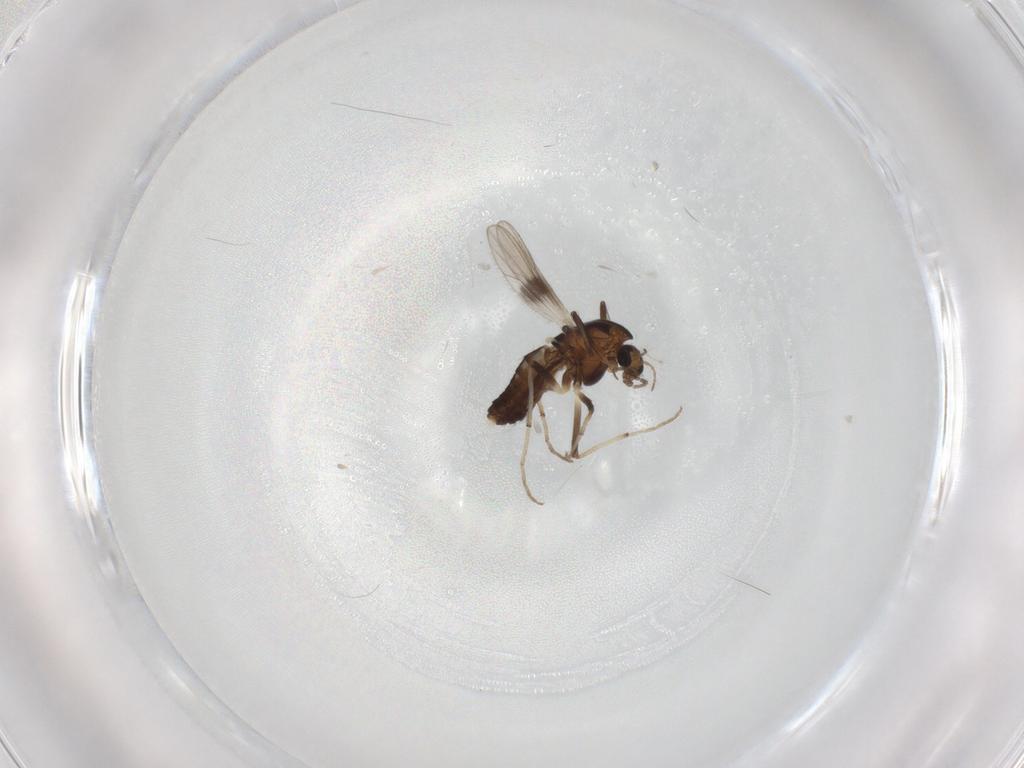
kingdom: Animalia
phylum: Arthropoda
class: Insecta
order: Diptera
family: Chironomidae
